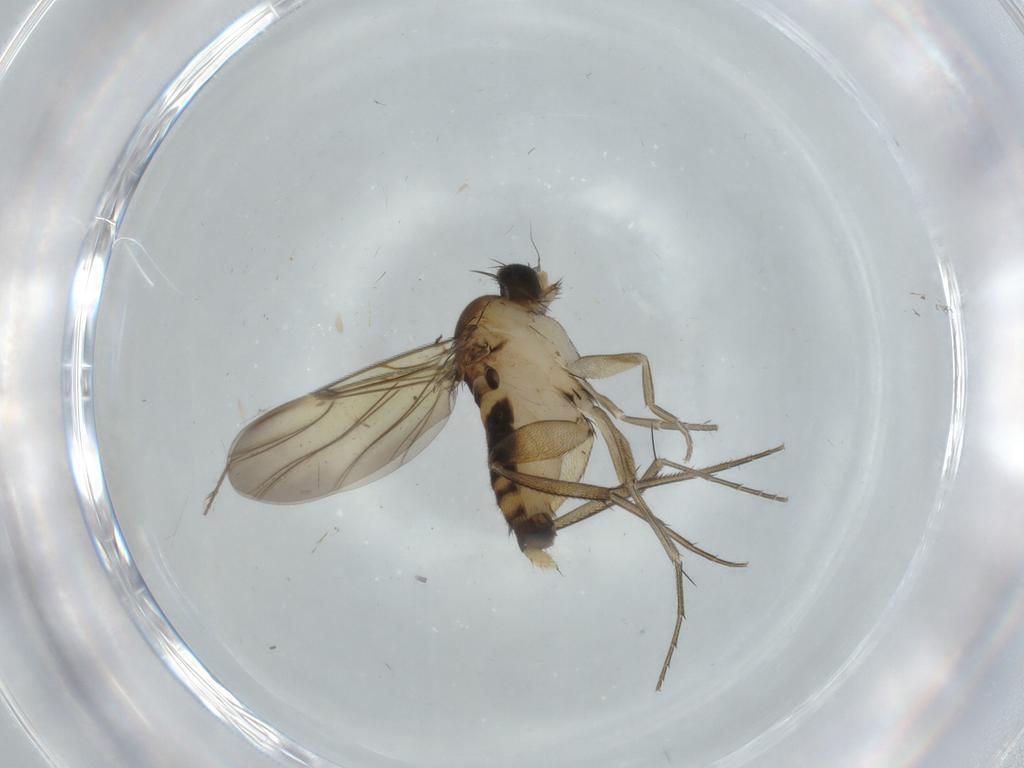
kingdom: Animalia
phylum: Arthropoda
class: Insecta
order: Diptera
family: Phoridae
